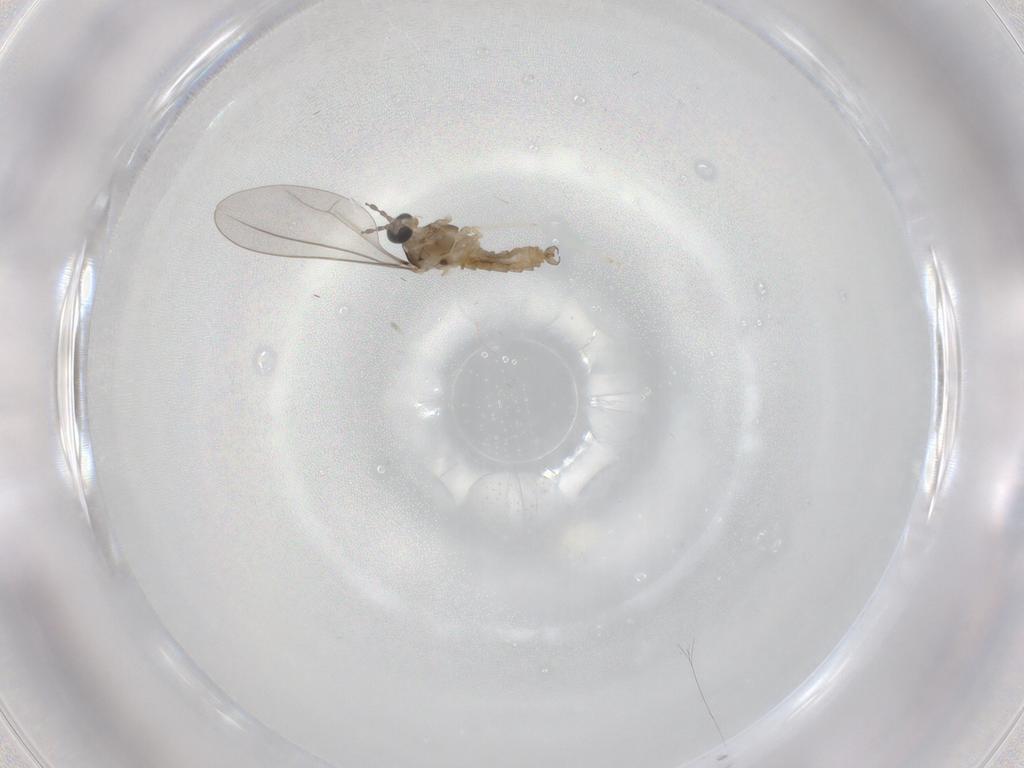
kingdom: Animalia
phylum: Arthropoda
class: Insecta
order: Diptera
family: Cecidomyiidae
